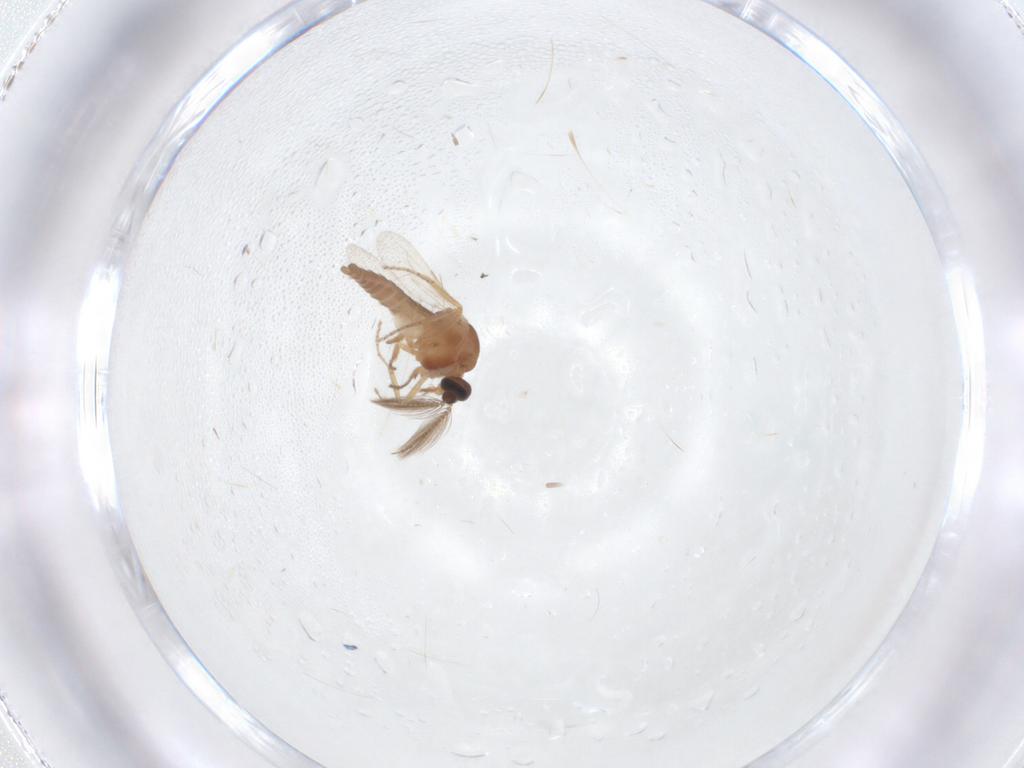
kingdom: Animalia
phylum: Arthropoda
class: Insecta
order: Diptera
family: Ceratopogonidae
